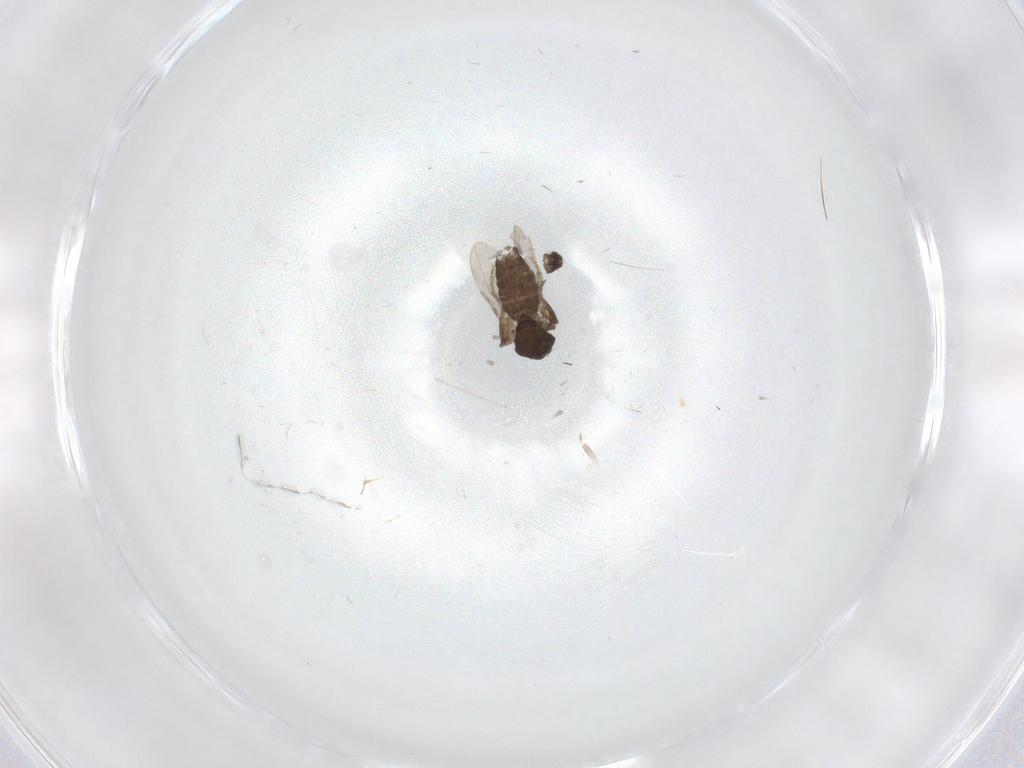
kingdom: Animalia
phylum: Arthropoda
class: Insecta
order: Diptera
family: Ceratopogonidae
